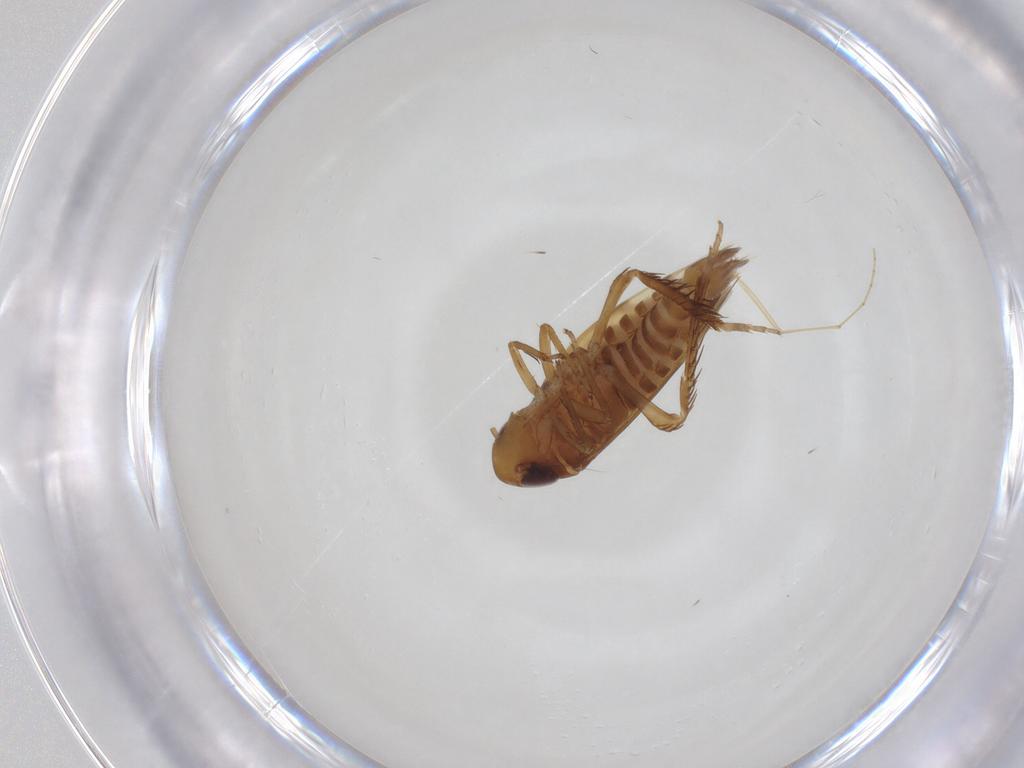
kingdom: Animalia
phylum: Arthropoda
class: Insecta
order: Hemiptera
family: Cicadellidae
